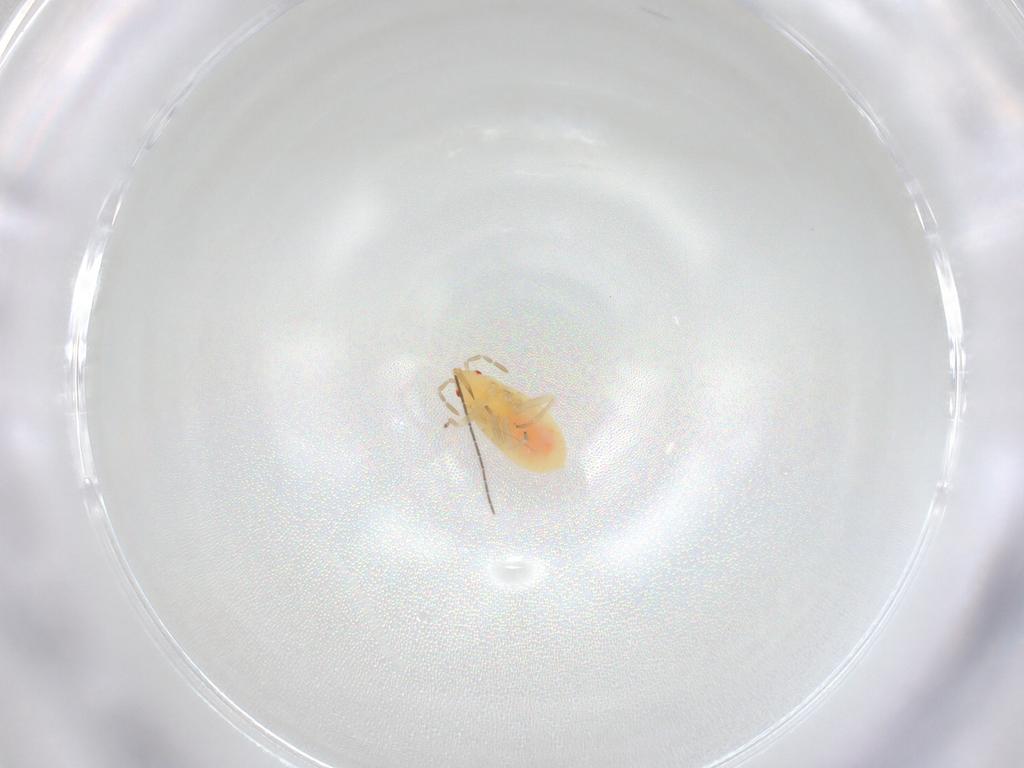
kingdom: Animalia
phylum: Arthropoda
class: Insecta
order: Hemiptera
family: Anthocoridae
